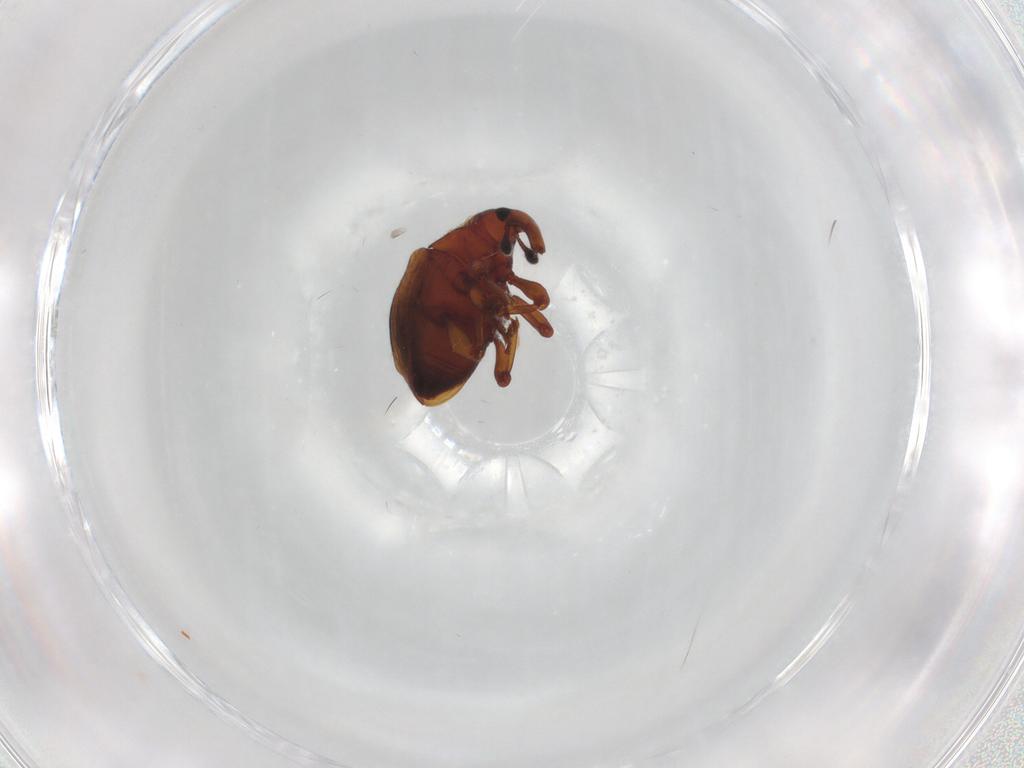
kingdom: Animalia
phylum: Arthropoda
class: Insecta
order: Coleoptera
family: Curculionidae
